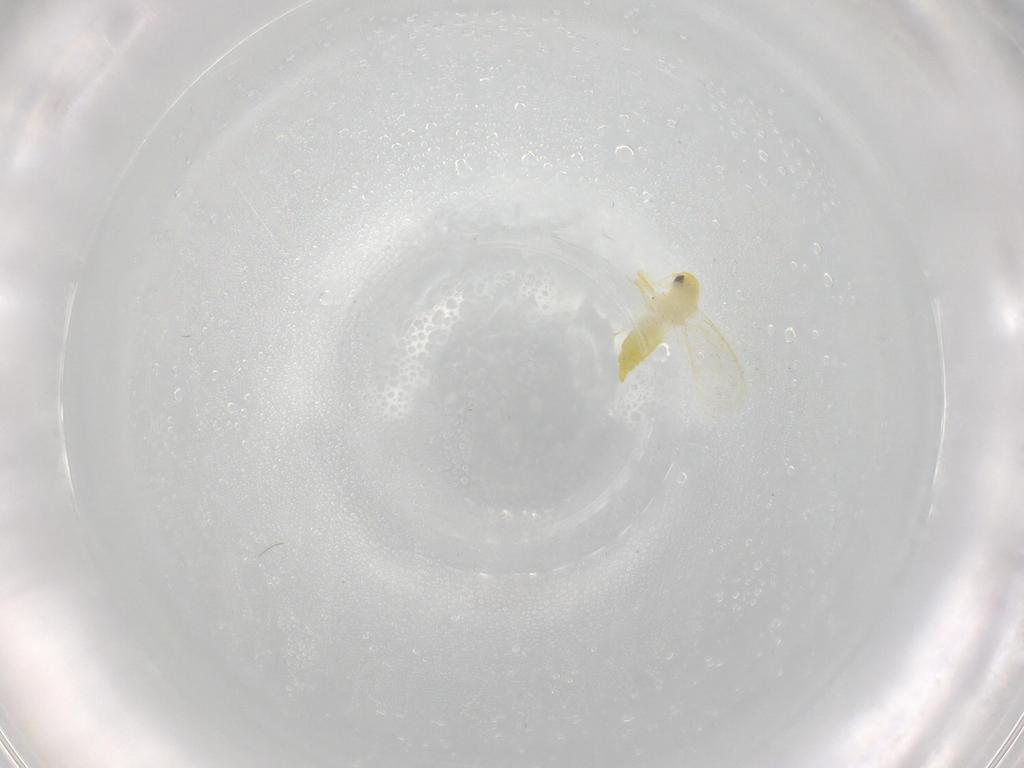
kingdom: Animalia
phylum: Arthropoda
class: Insecta
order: Hemiptera
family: Aleyrodidae
